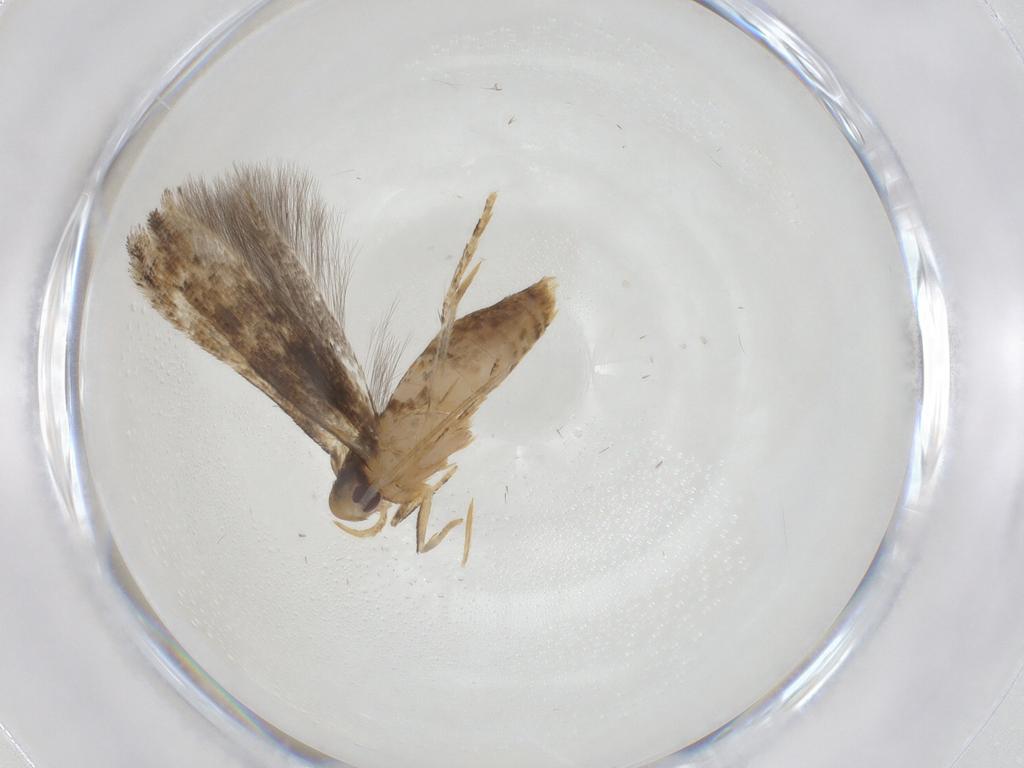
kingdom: Animalia
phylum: Arthropoda
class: Insecta
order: Lepidoptera
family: Momphidae
